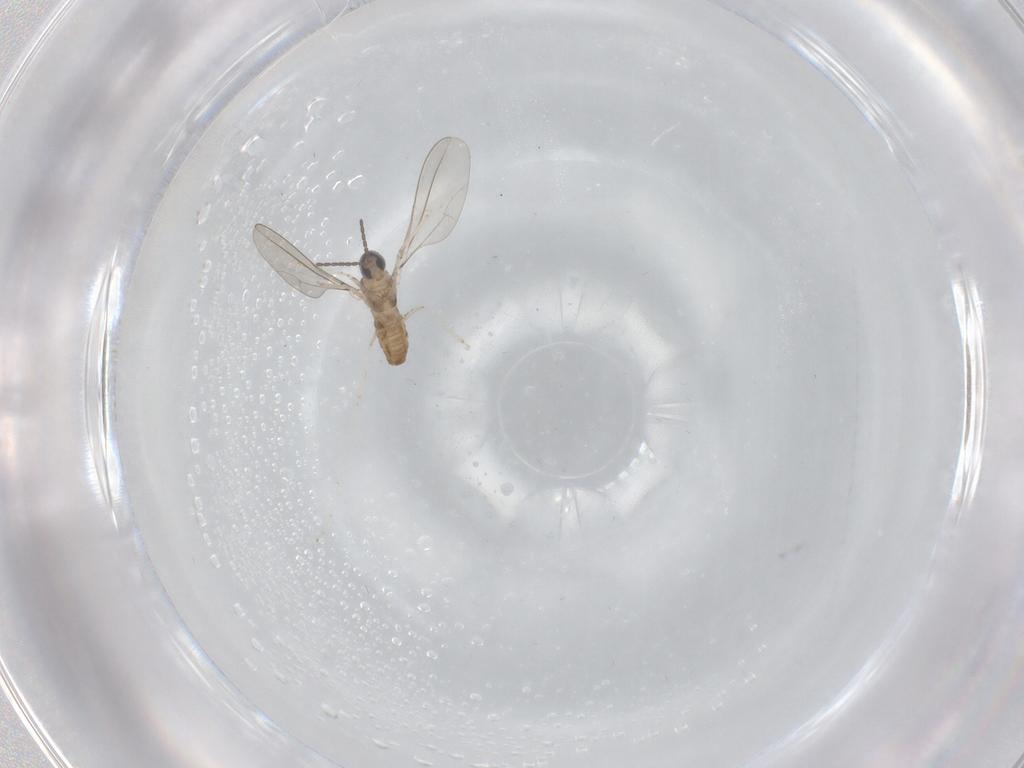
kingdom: Animalia
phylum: Arthropoda
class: Insecta
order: Diptera
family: Cecidomyiidae
